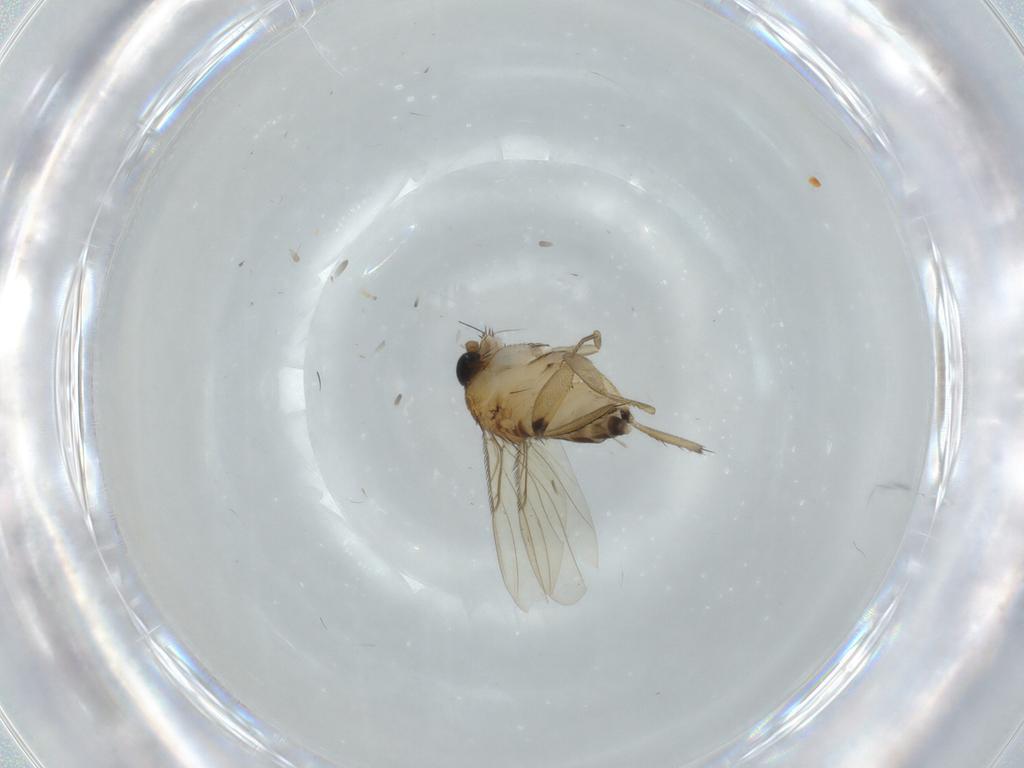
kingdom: Animalia
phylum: Arthropoda
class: Insecta
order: Diptera
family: Phoridae
